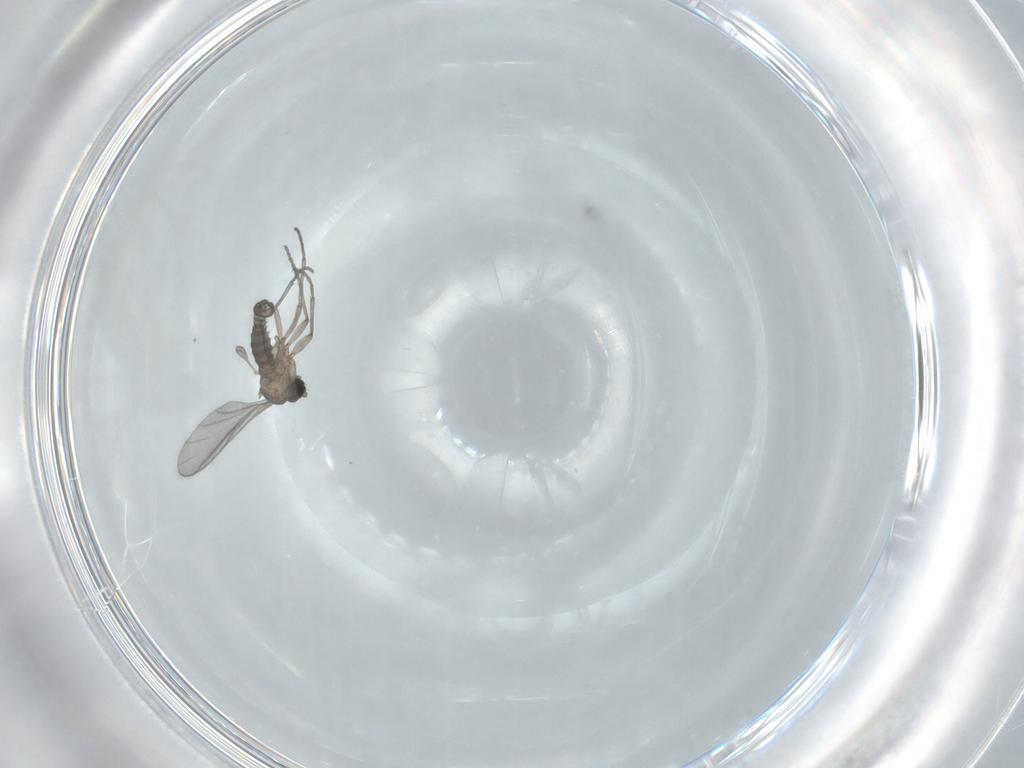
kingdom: Animalia
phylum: Arthropoda
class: Insecta
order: Diptera
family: Sciaridae
